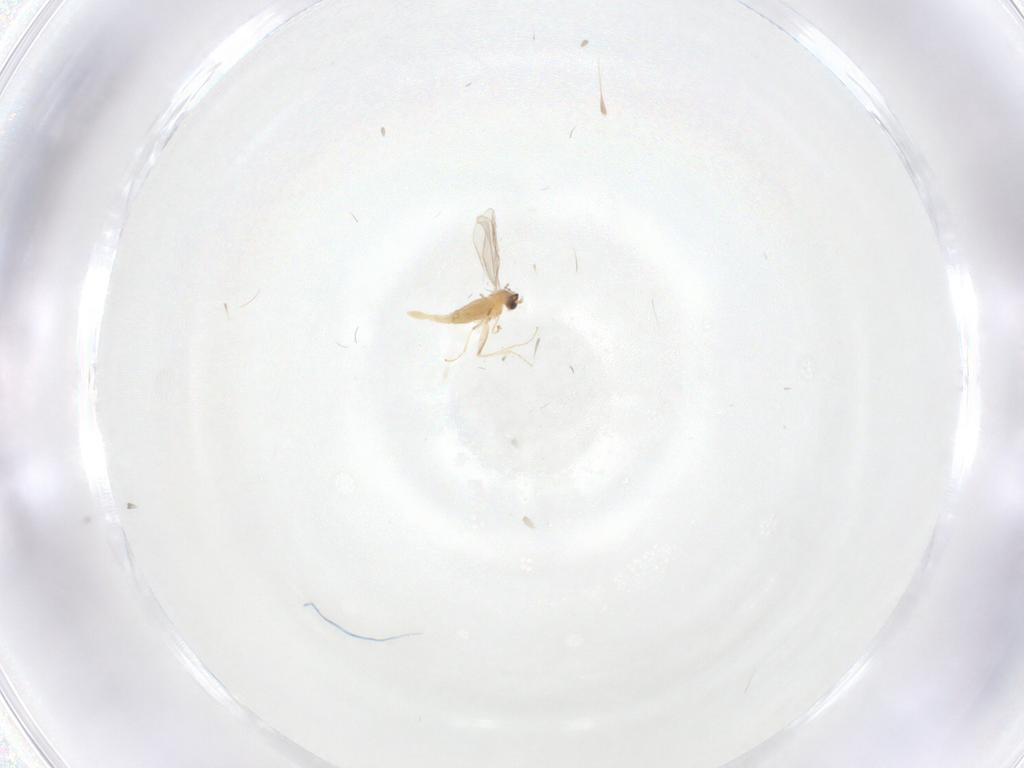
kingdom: Animalia
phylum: Arthropoda
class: Insecta
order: Diptera
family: Cecidomyiidae
